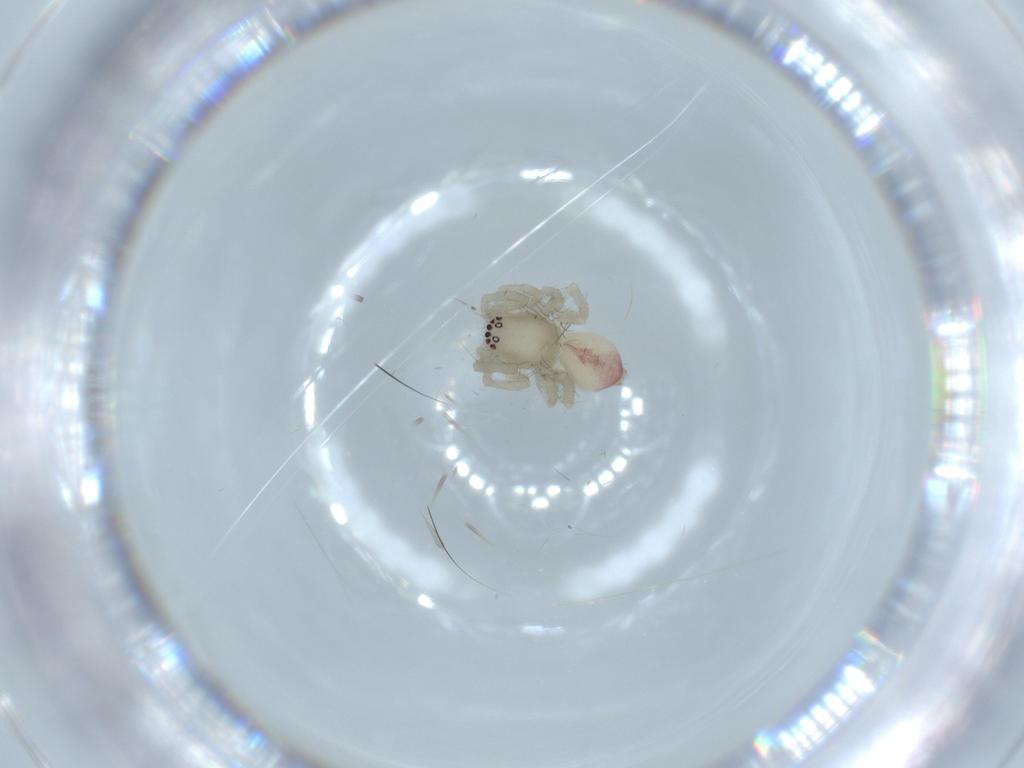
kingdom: Animalia
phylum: Arthropoda
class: Arachnida
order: Araneae
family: Clubionidae
